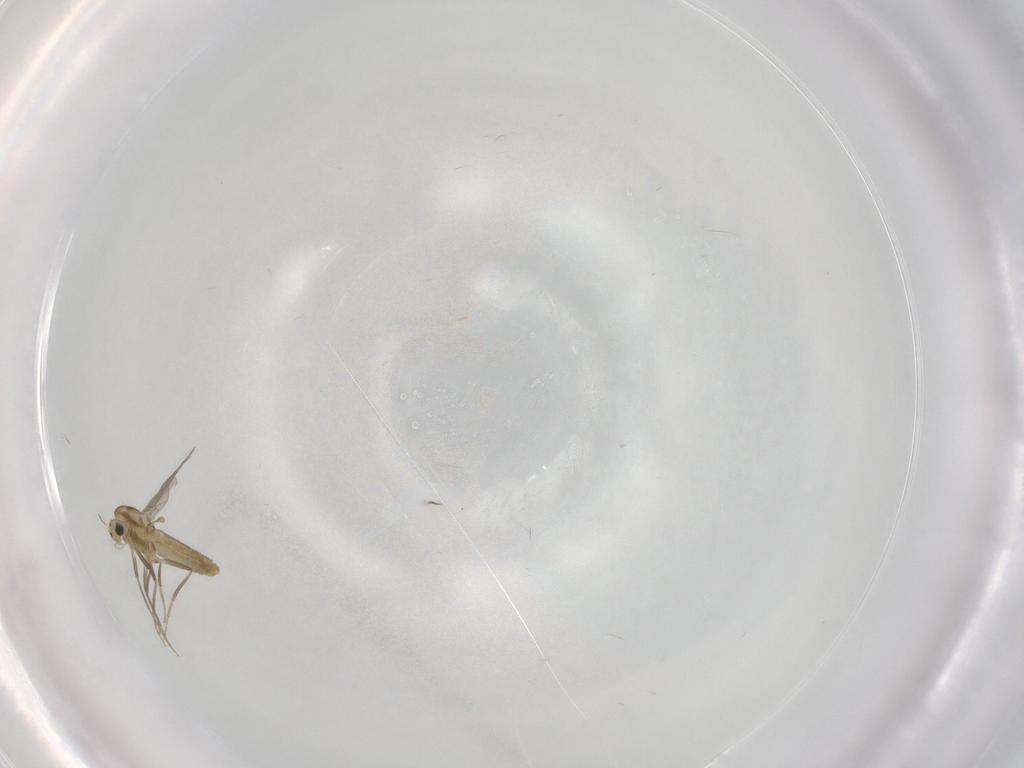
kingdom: Animalia
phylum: Arthropoda
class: Insecta
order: Diptera
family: Chironomidae
